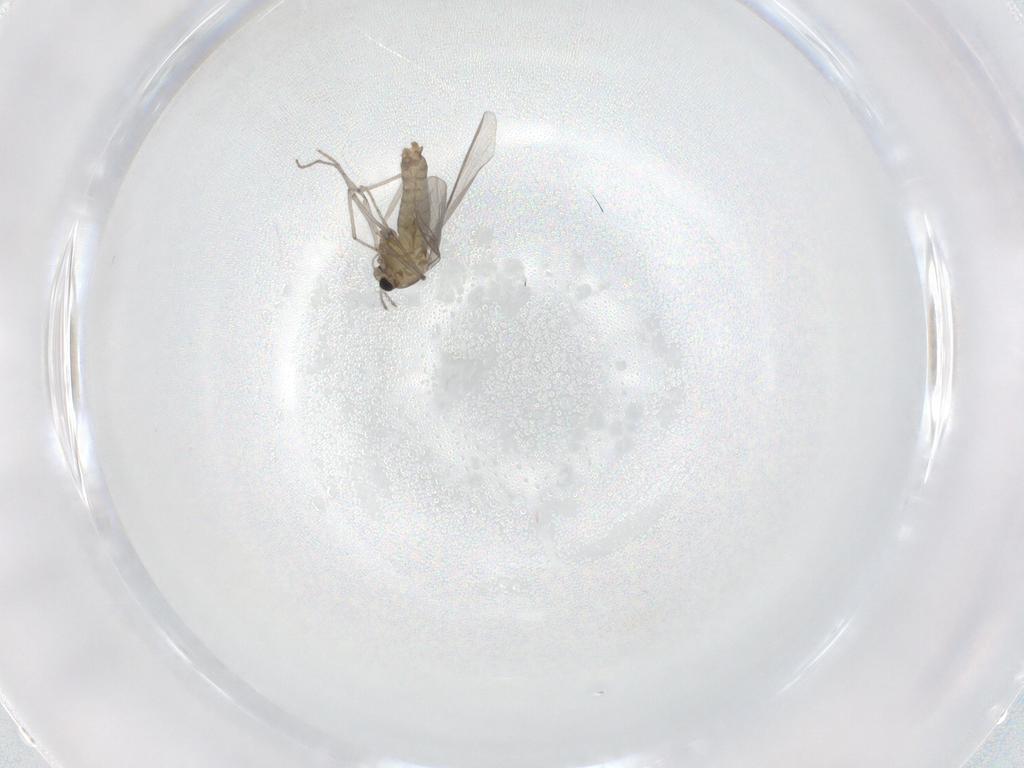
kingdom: Animalia
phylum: Arthropoda
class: Insecta
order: Diptera
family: Chironomidae
